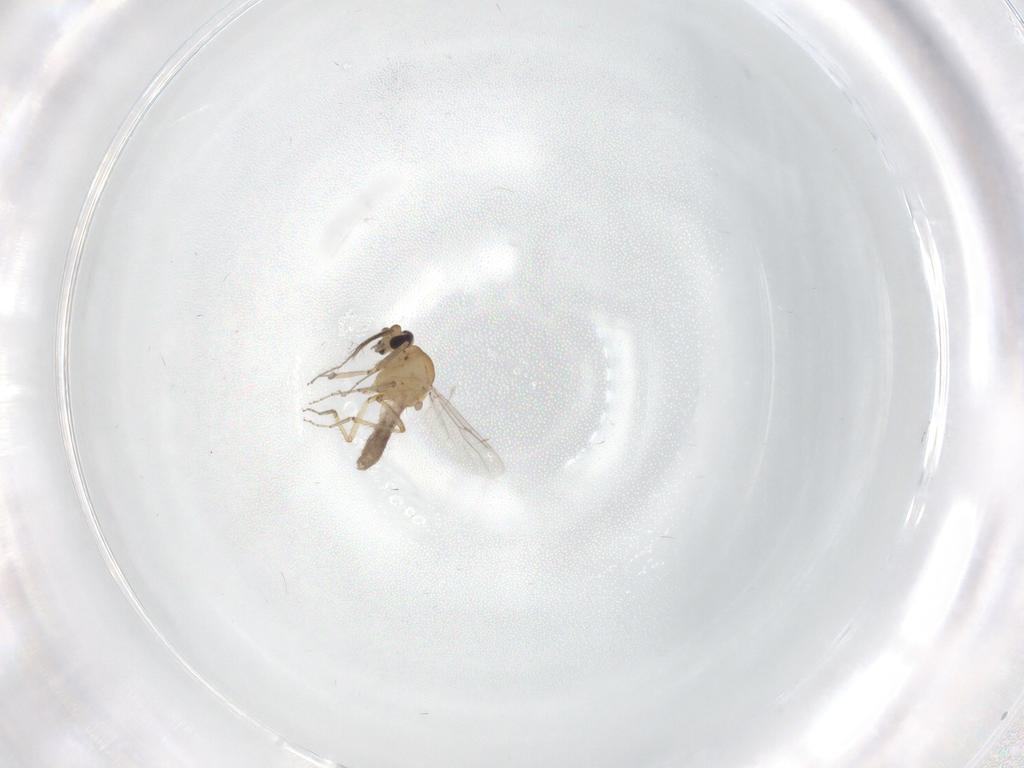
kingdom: Animalia
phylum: Arthropoda
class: Insecta
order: Diptera
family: Ceratopogonidae
